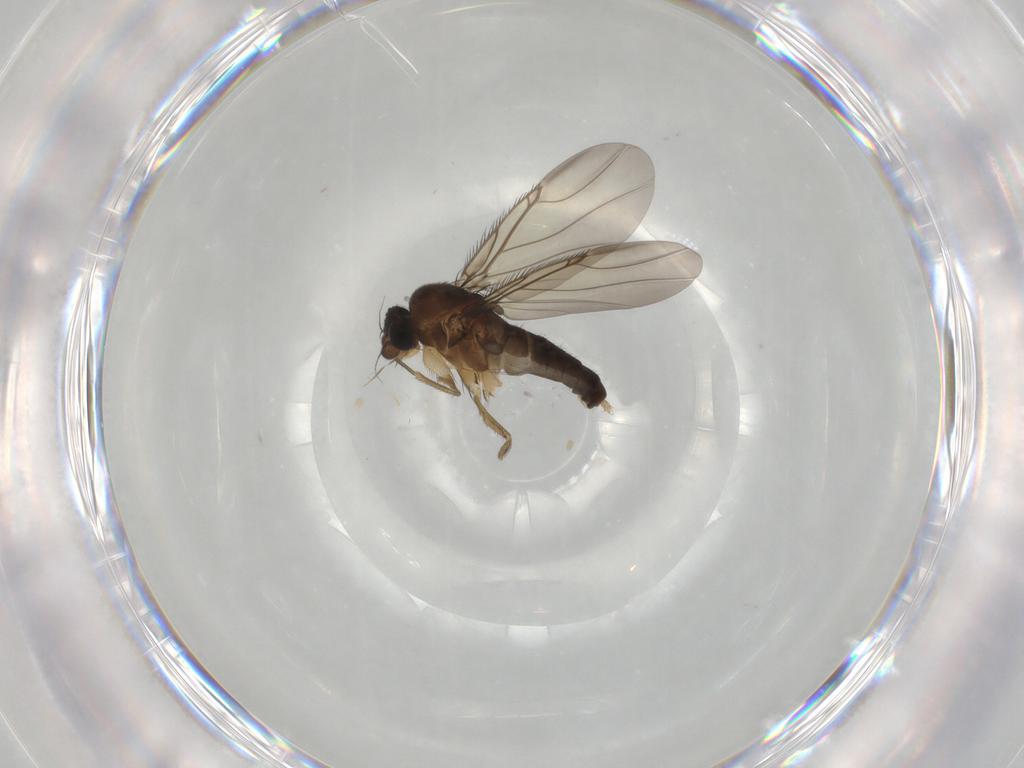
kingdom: Animalia
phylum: Arthropoda
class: Insecta
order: Diptera
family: Phoridae
